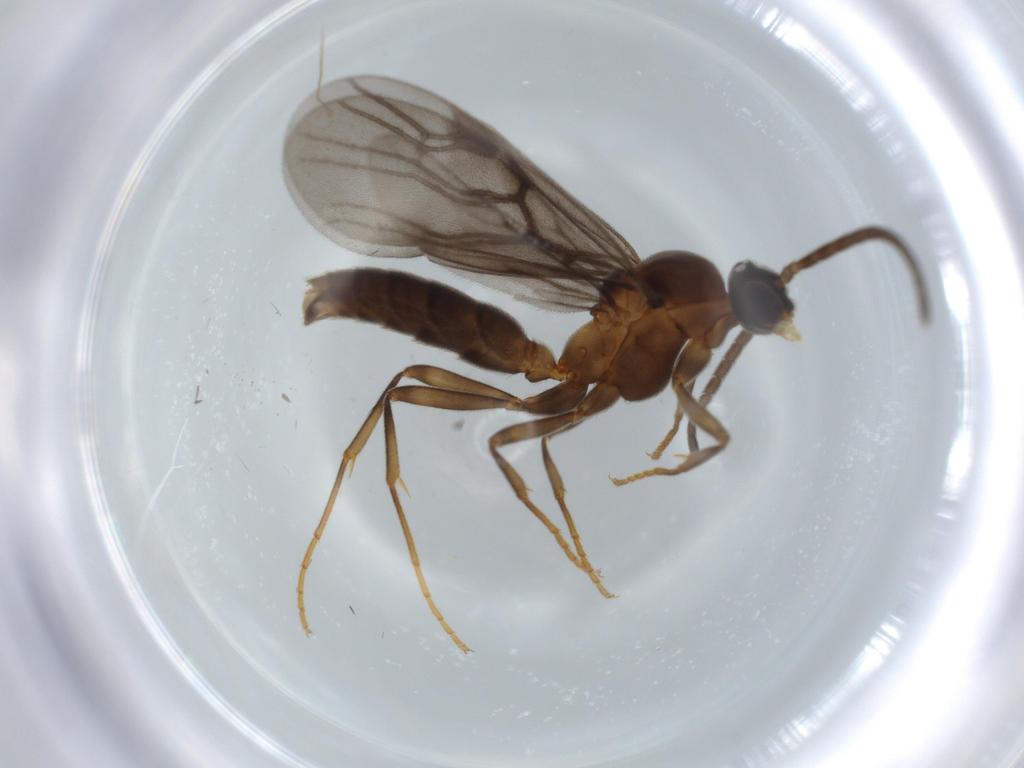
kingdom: Animalia
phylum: Arthropoda
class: Insecta
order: Hymenoptera
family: Formicidae
